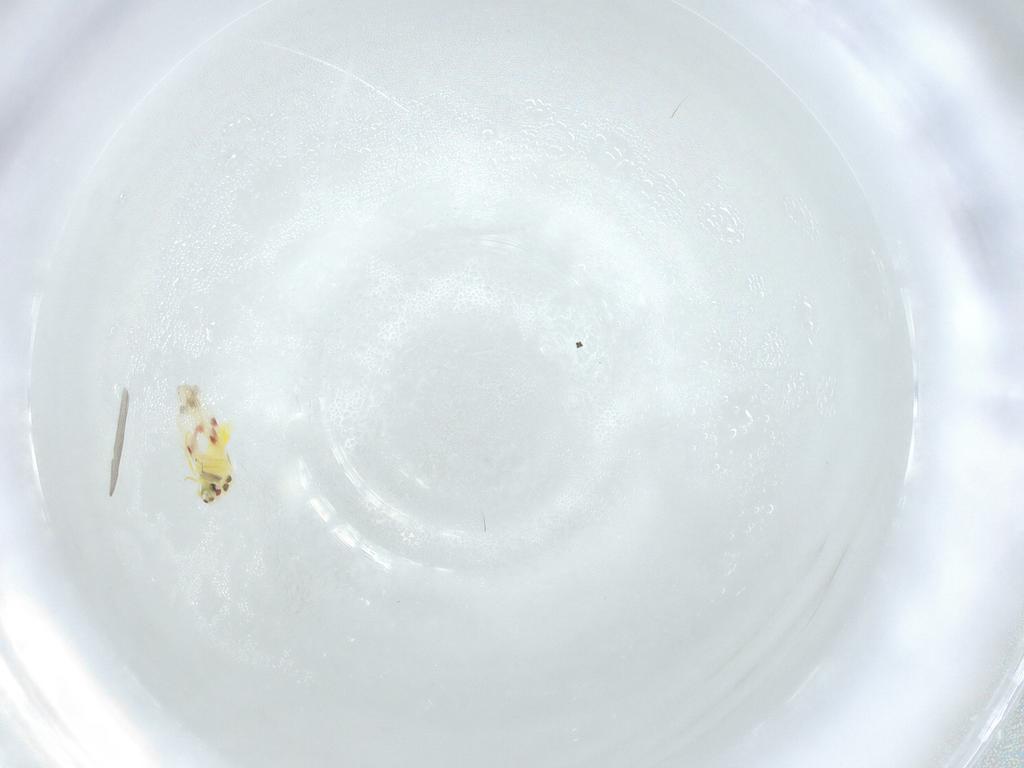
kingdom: Animalia
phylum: Arthropoda
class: Insecta
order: Hemiptera
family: Aleyrodidae
